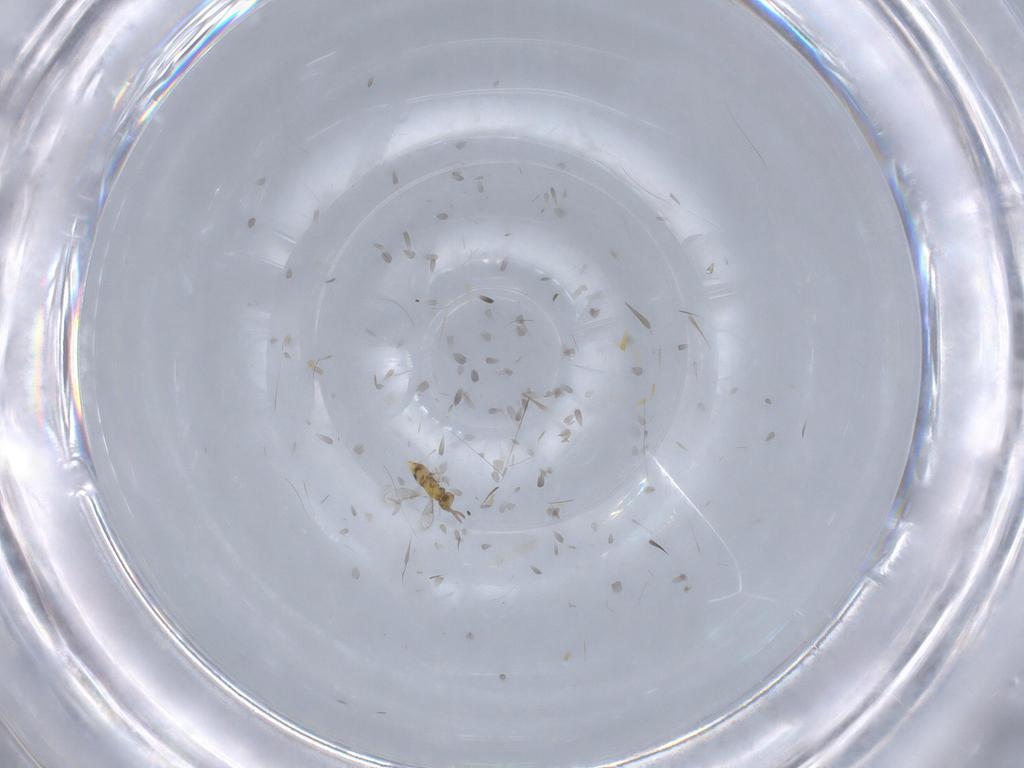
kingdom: Animalia
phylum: Arthropoda
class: Insecta
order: Hymenoptera
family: Aphelinidae
